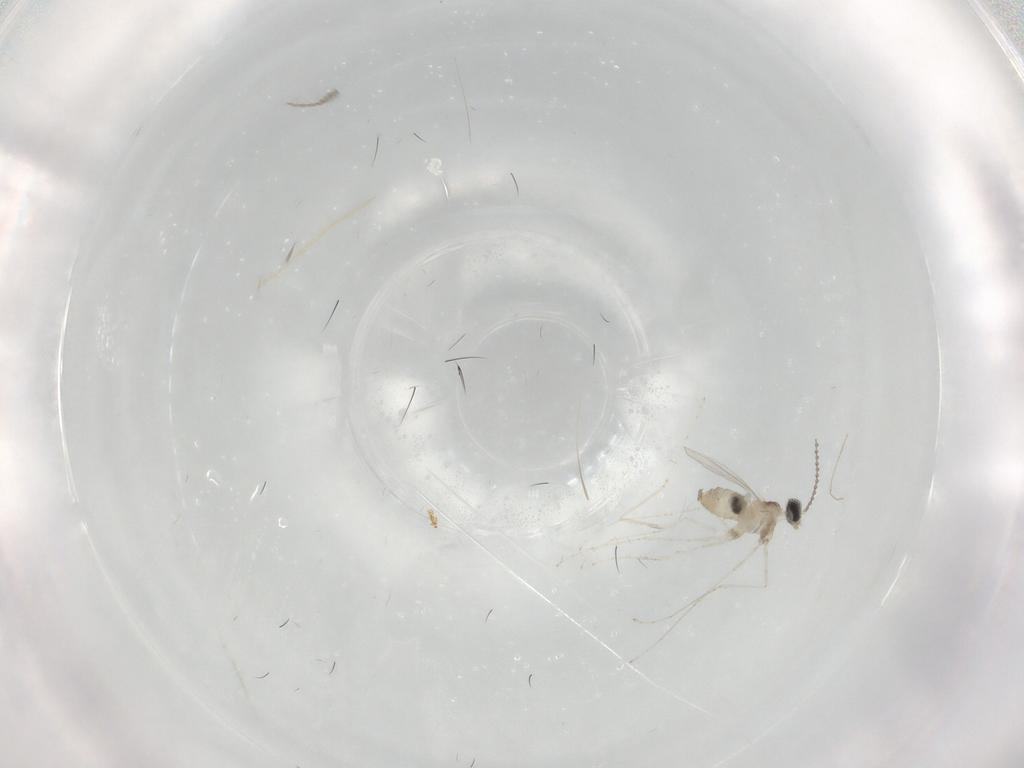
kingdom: Animalia
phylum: Arthropoda
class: Insecta
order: Diptera
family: Cecidomyiidae
